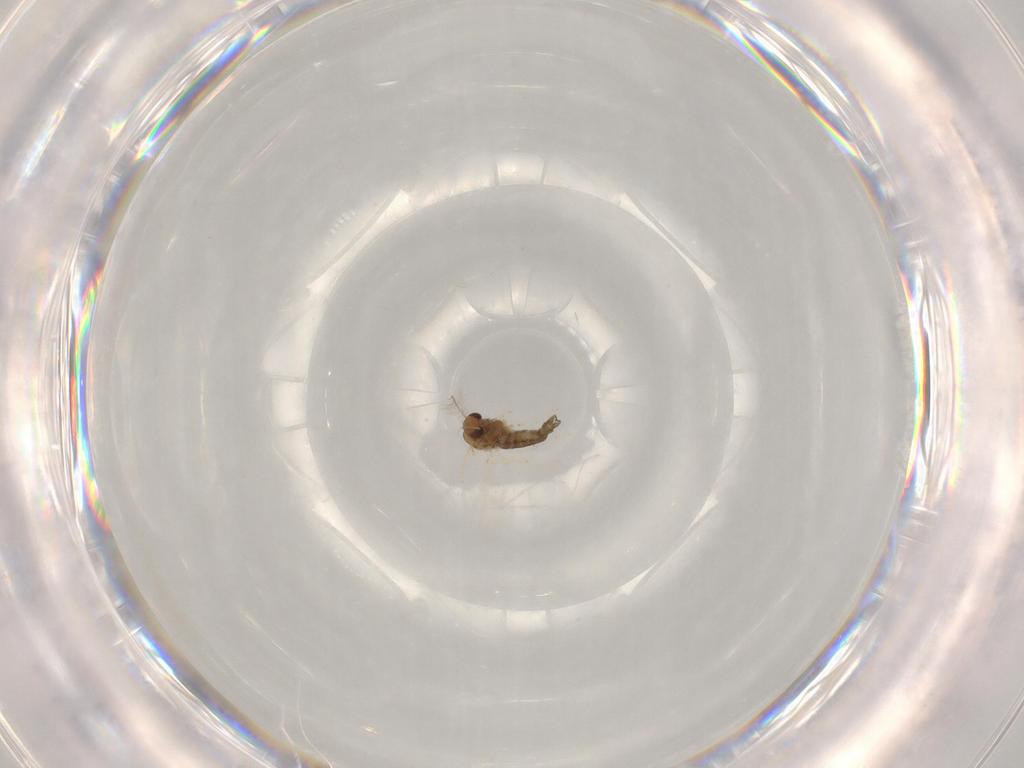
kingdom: Animalia
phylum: Arthropoda
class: Insecta
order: Diptera
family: Chironomidae
